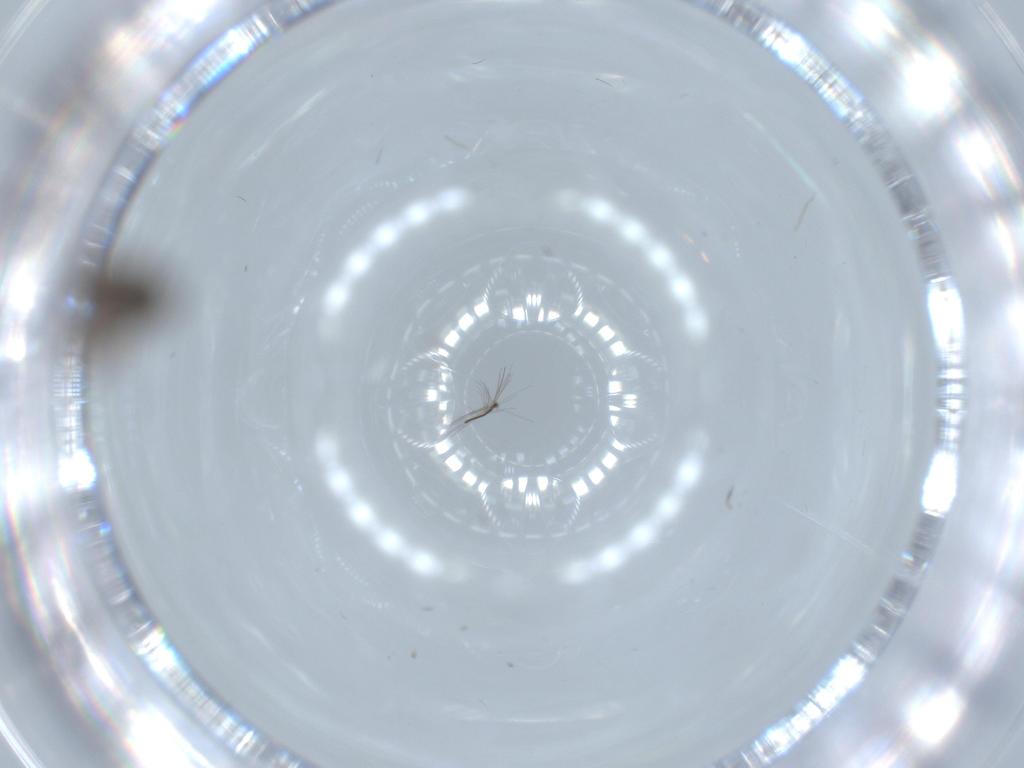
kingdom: Animalia
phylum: Arthropoda
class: Insecta
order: Diptera
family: Phoridae
